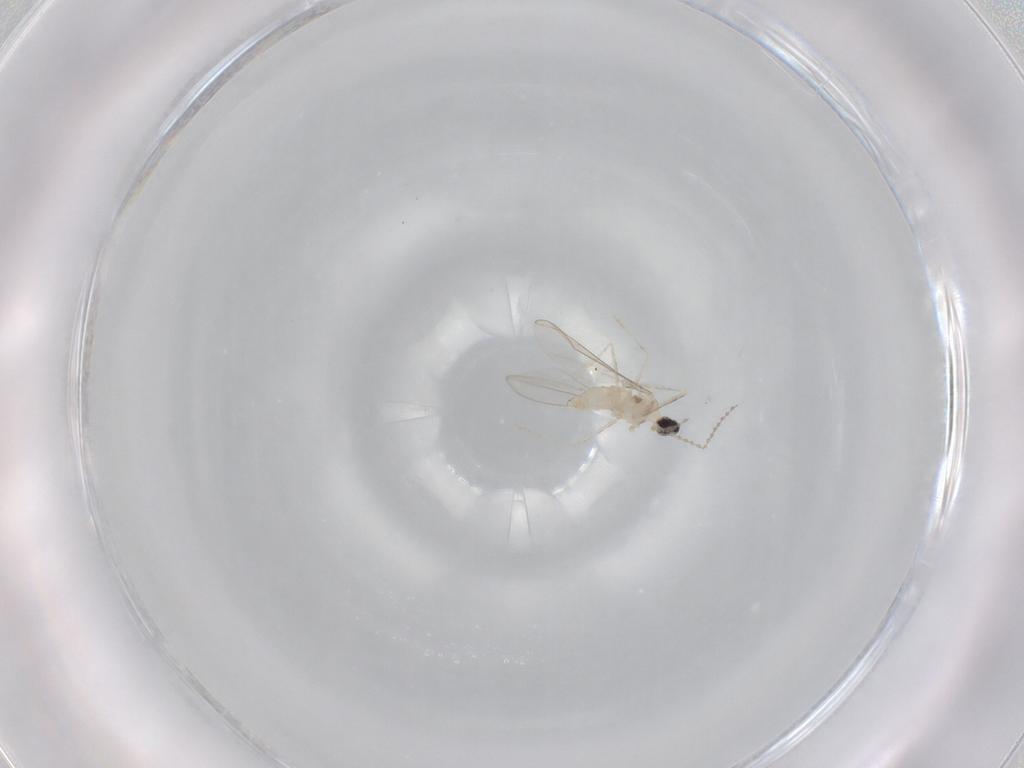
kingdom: Animalia
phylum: Arthropoda
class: Insecta
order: Diptera
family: Cecidomyiidae
